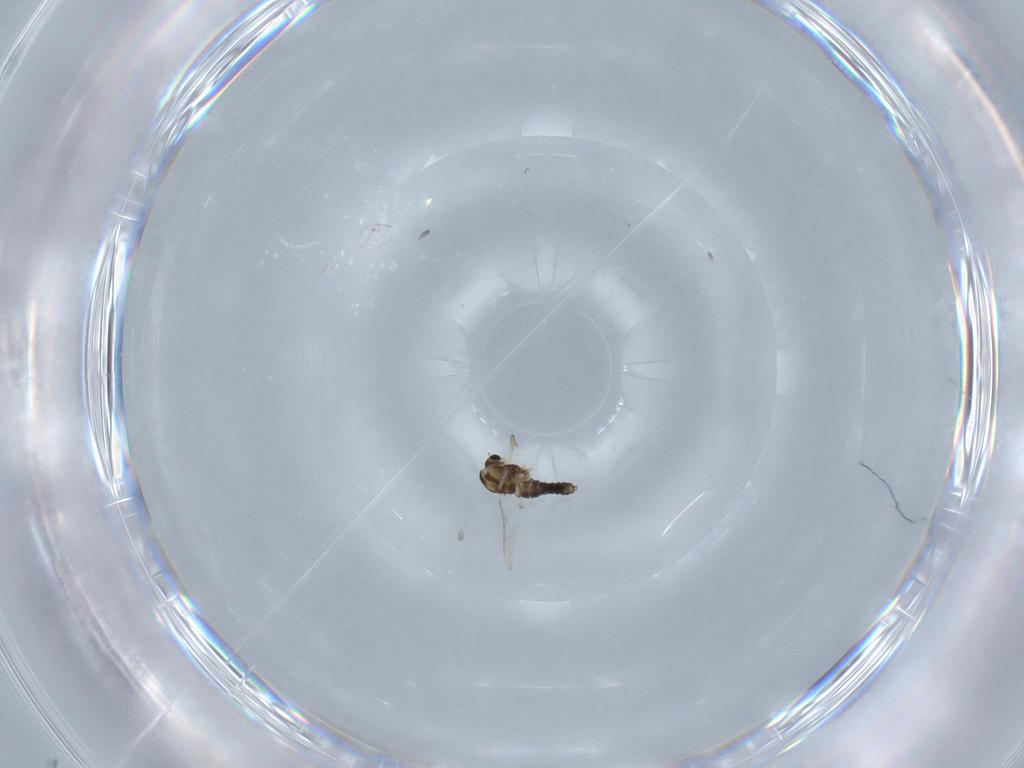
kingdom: Animalia
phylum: Arthropoda
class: Insecta
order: Diptera
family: Chironomidae
